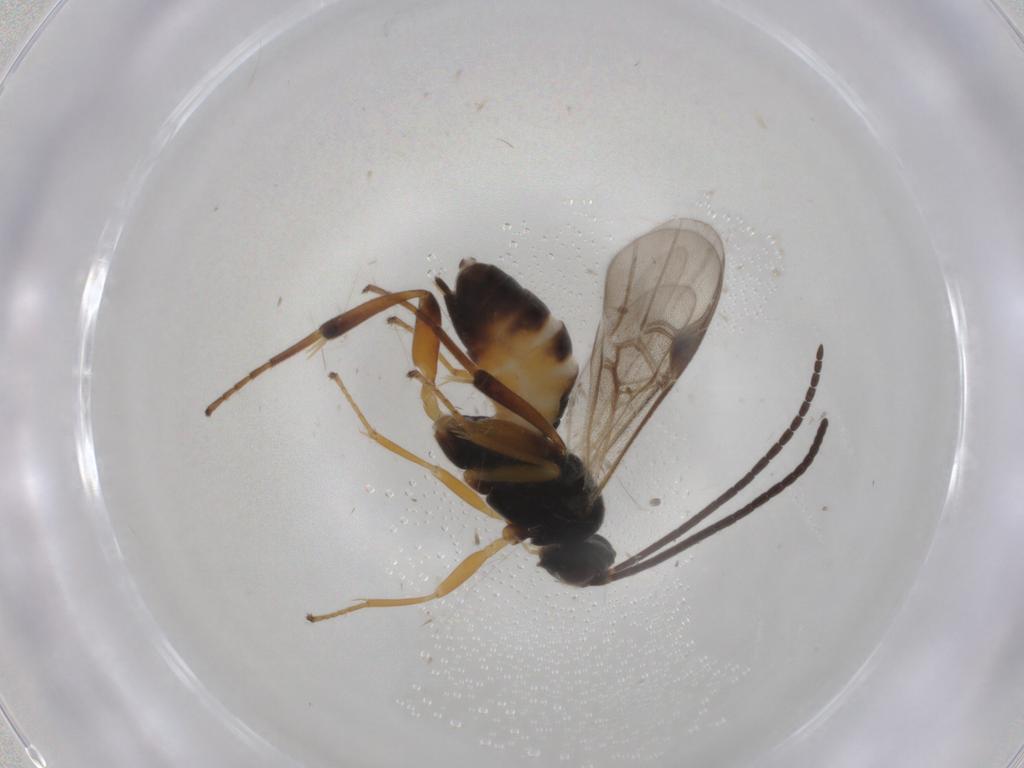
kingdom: Animalia
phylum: Arthropoda
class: Insecta
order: Hymenoptera
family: Braconidae
